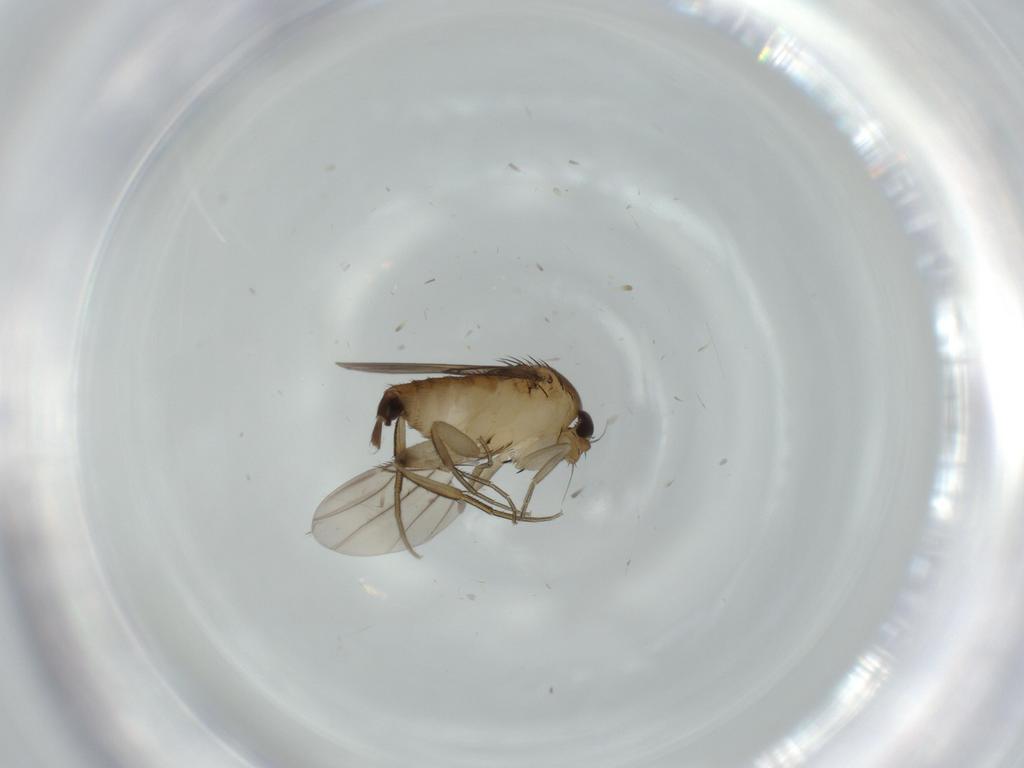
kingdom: Animalia
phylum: Arthropoda
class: Insecta
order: Diptera
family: Phoridae
